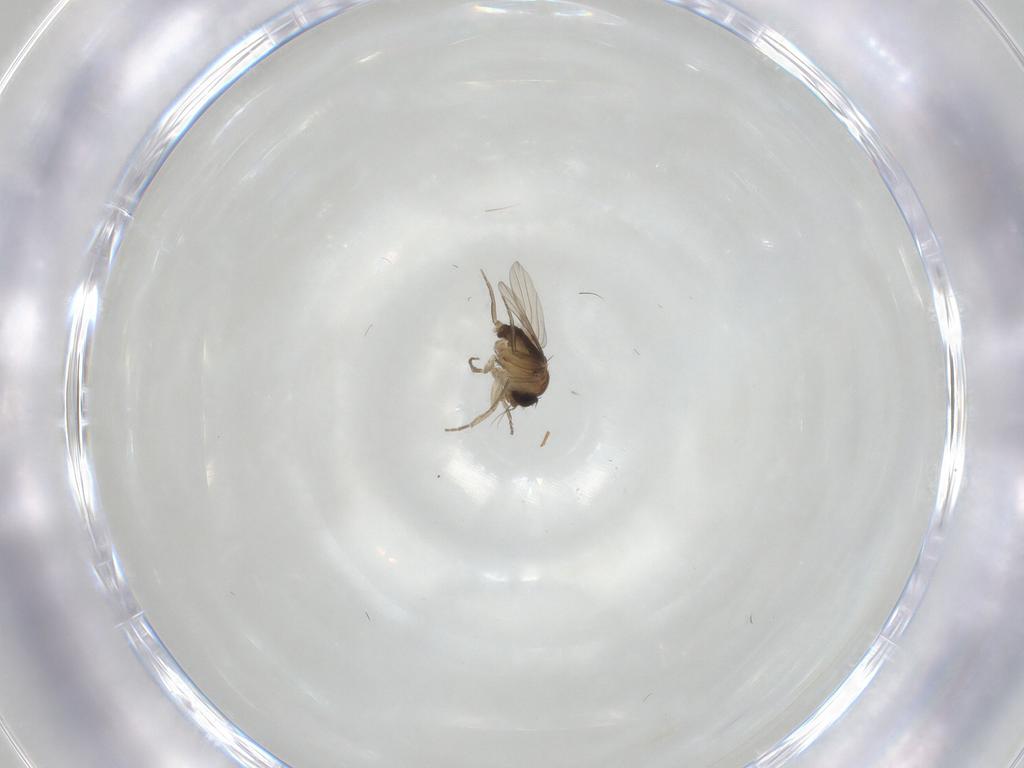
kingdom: Animalia
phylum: Arthropoda
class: Insecta
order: Diptera
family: Phoridae
